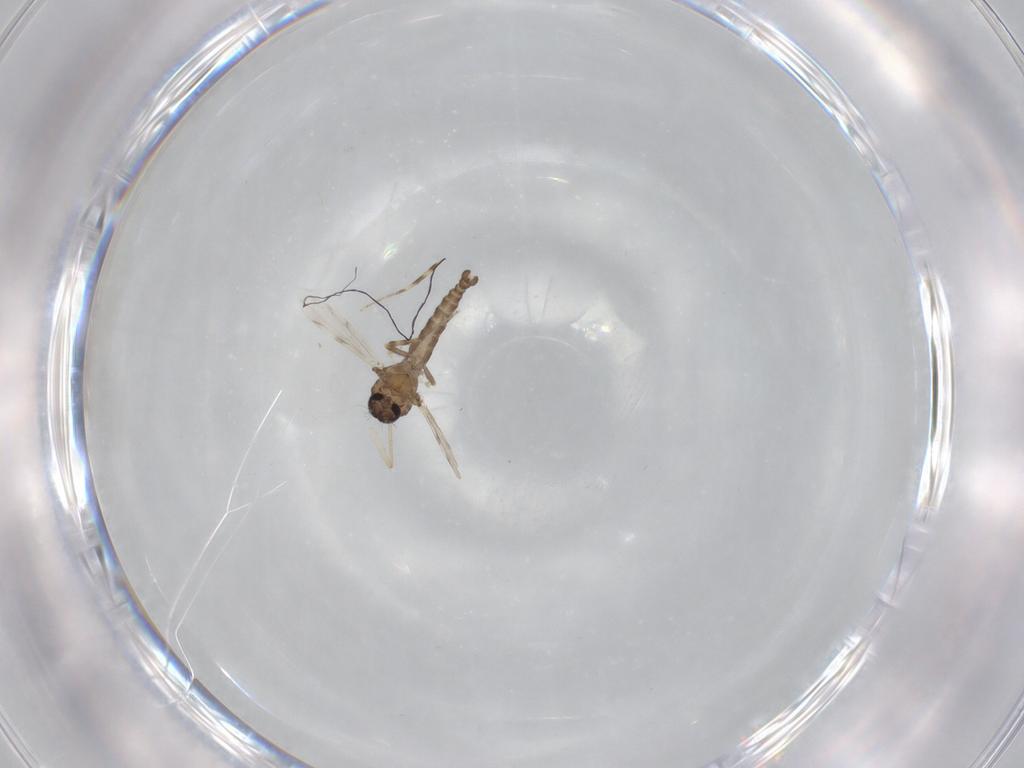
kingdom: Animalia
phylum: Arthropoda
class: Insecta
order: Diptera
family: Ceratopogonidae
